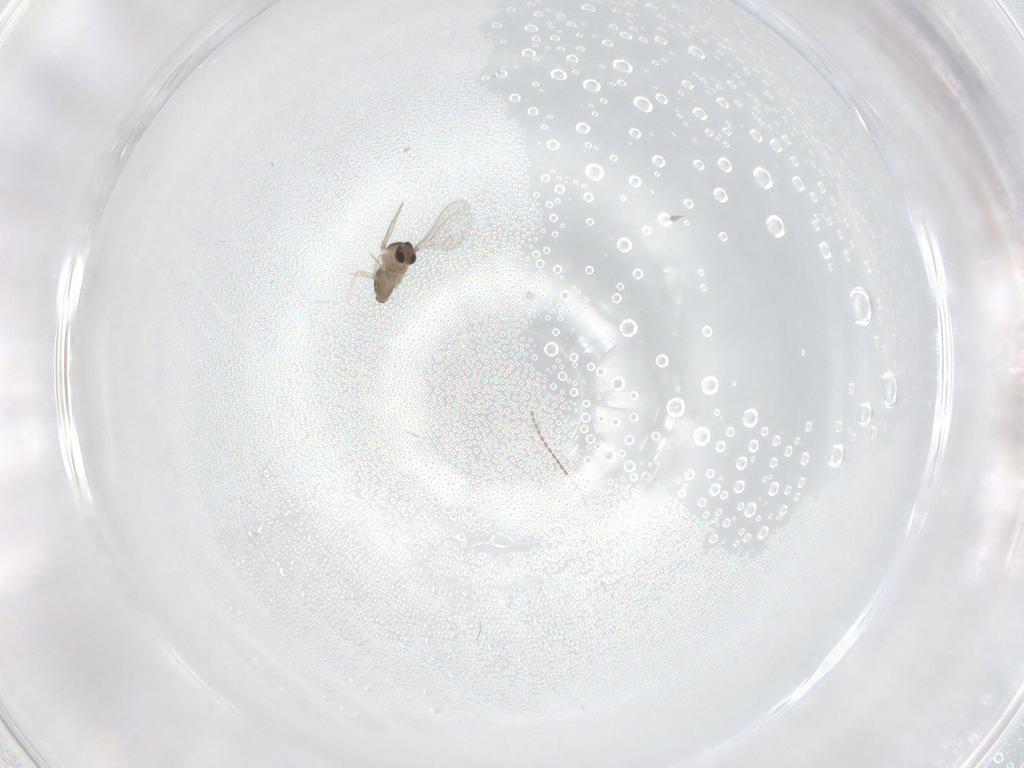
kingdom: Animalia
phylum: Arthropoda
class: Insecta
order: Diptera
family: Cecidomyiidae
